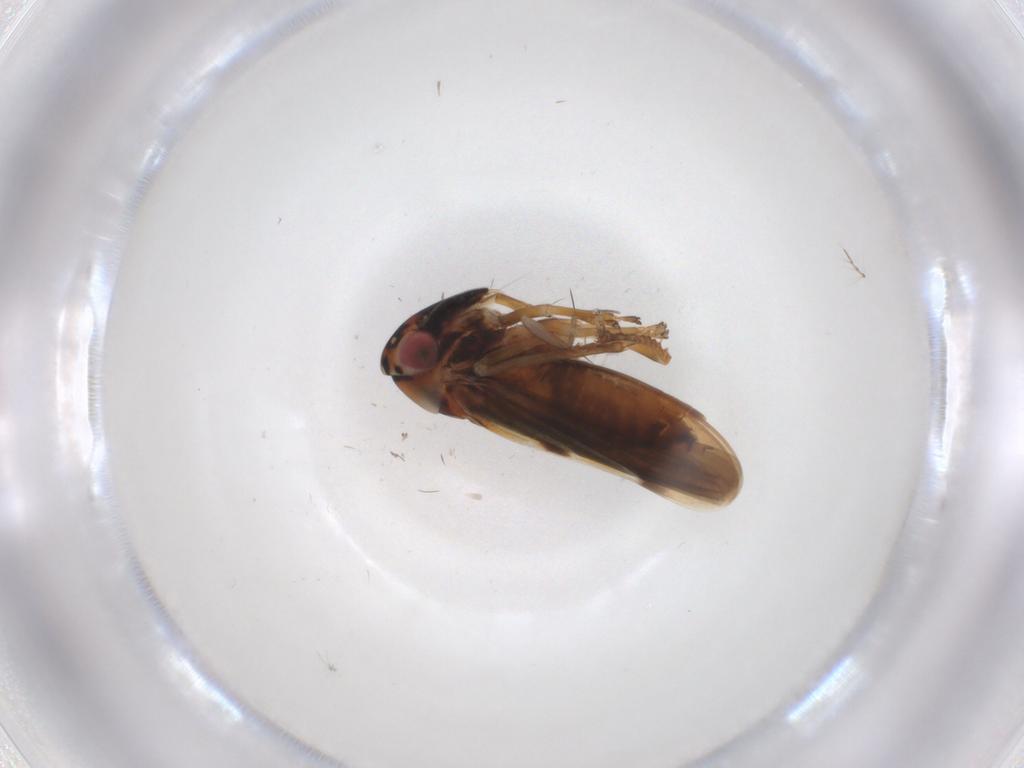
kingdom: Animalia
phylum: Arthropoda
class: Insecta
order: Hemiptera
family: Cicadellidae
